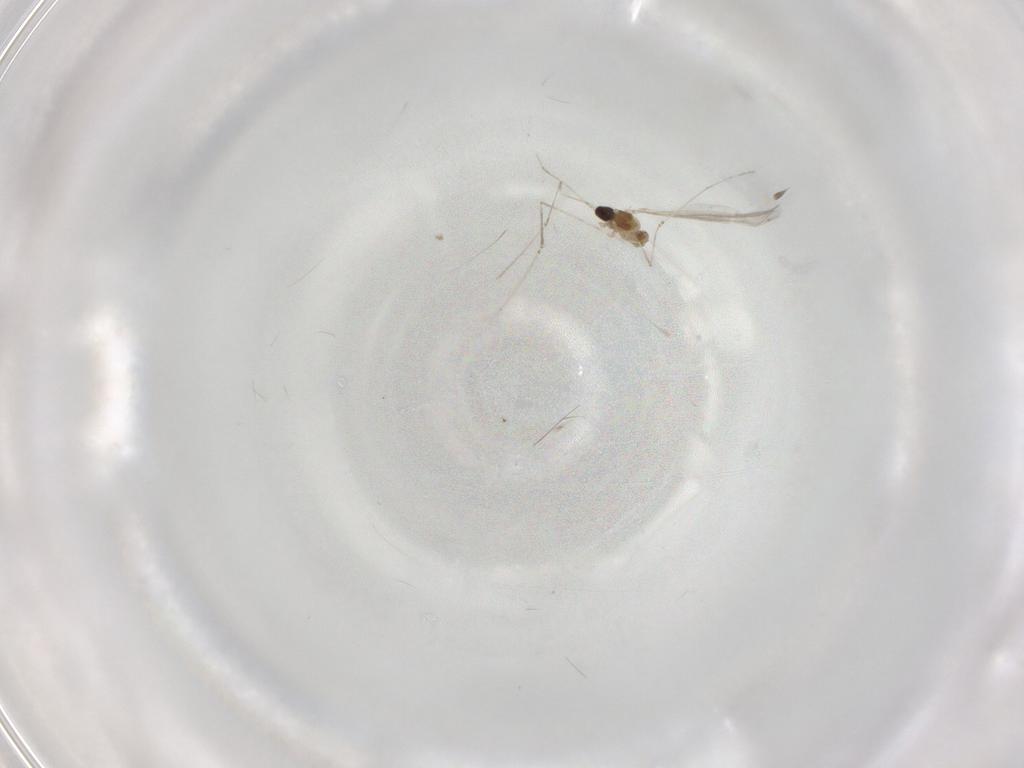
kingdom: Animalia
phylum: Arthropoda
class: Insecta
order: Diptera
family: Cecidomyiidae
